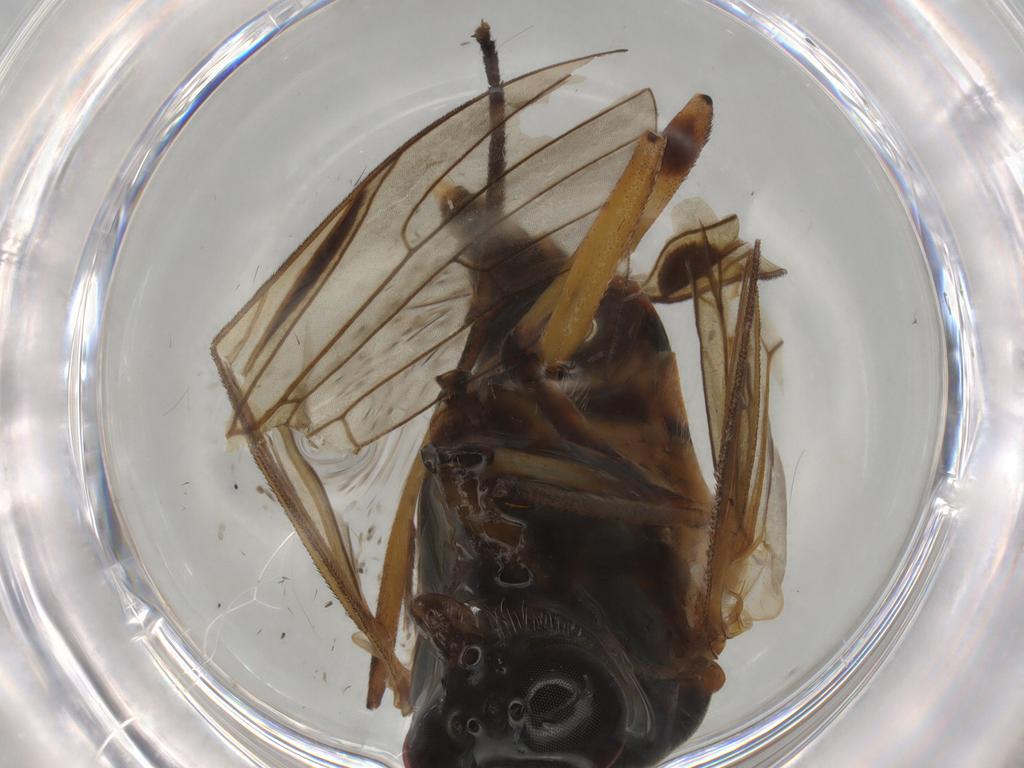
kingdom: Animalia
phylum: Arthropoda
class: Insecta
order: Diptera
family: Rhagionidae
